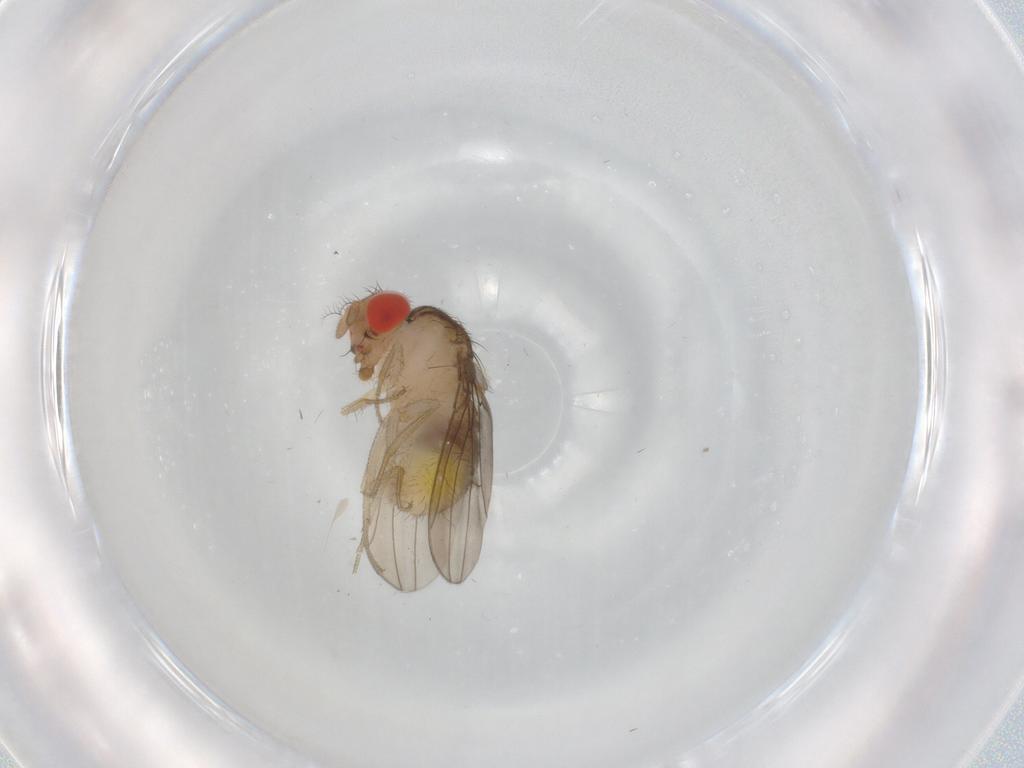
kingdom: Animalia
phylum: Arthropoda
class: Insecta
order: Diptera
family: Drosophilidae
